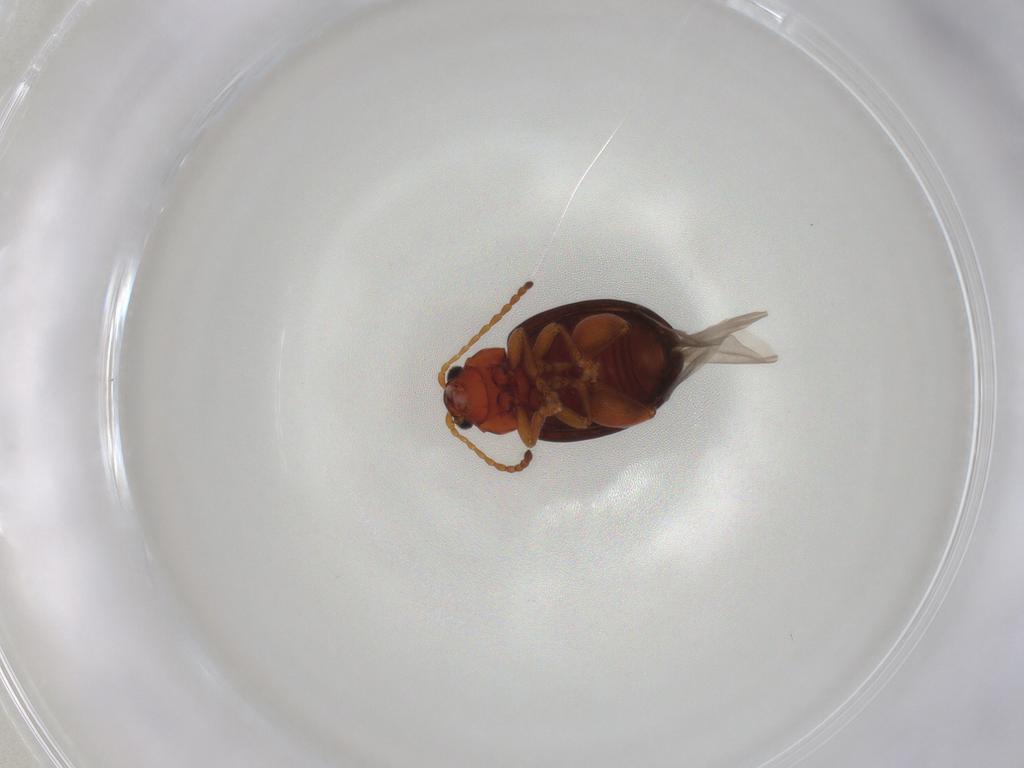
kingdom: Animalia
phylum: Arthropoda
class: Insecta
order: Coleoptera
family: Chrysomelidae
